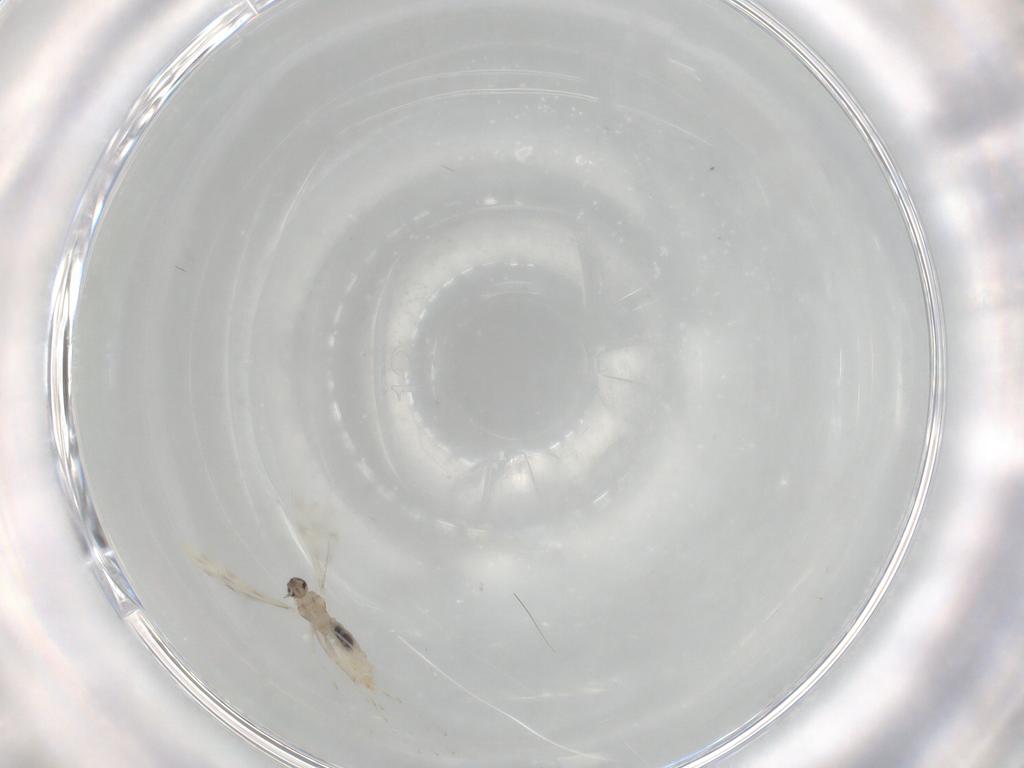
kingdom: Animalia
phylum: Arthropoda
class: Insecta
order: Diptera
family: Cecidomyiidae
